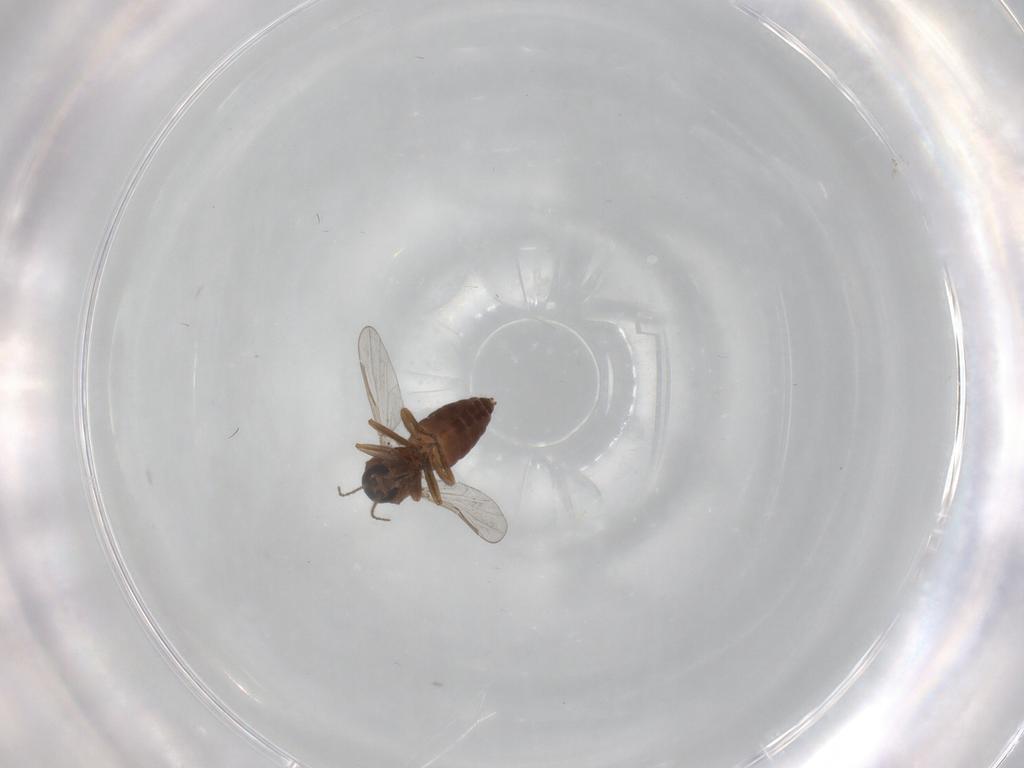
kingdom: Animalia
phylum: Arthropoda
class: Insecta
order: Diptera
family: Ceratopogonidae
